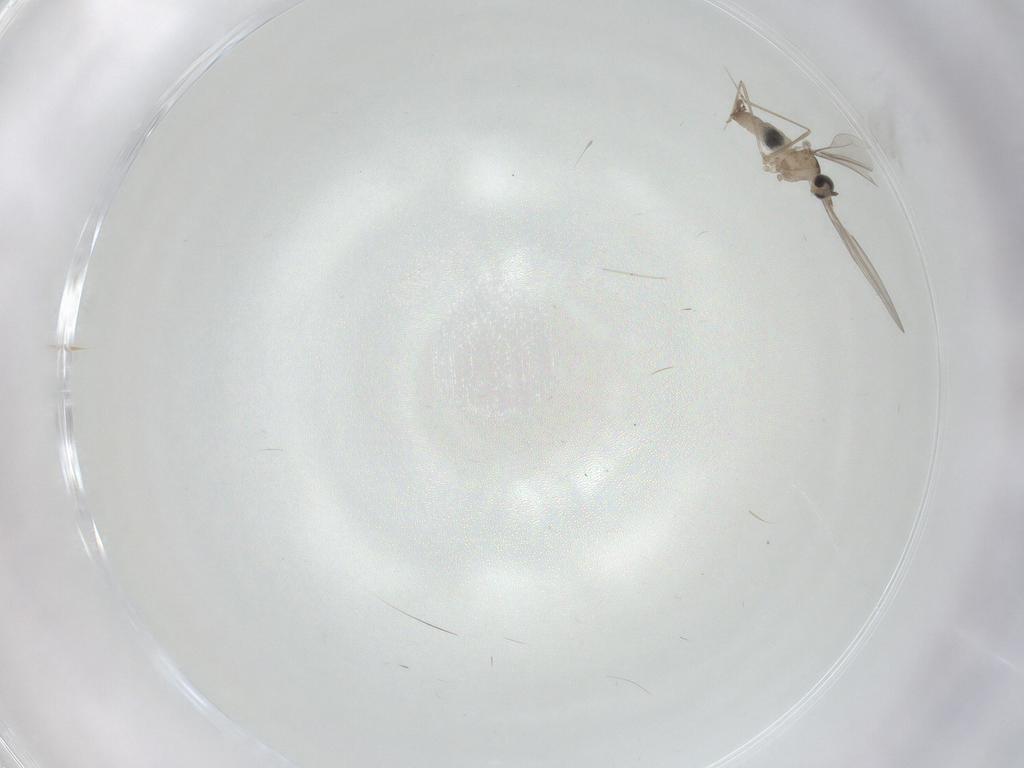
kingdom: Animalia
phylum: Arthropoda
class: Insecta
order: Diptera
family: Cecidomyiidae
